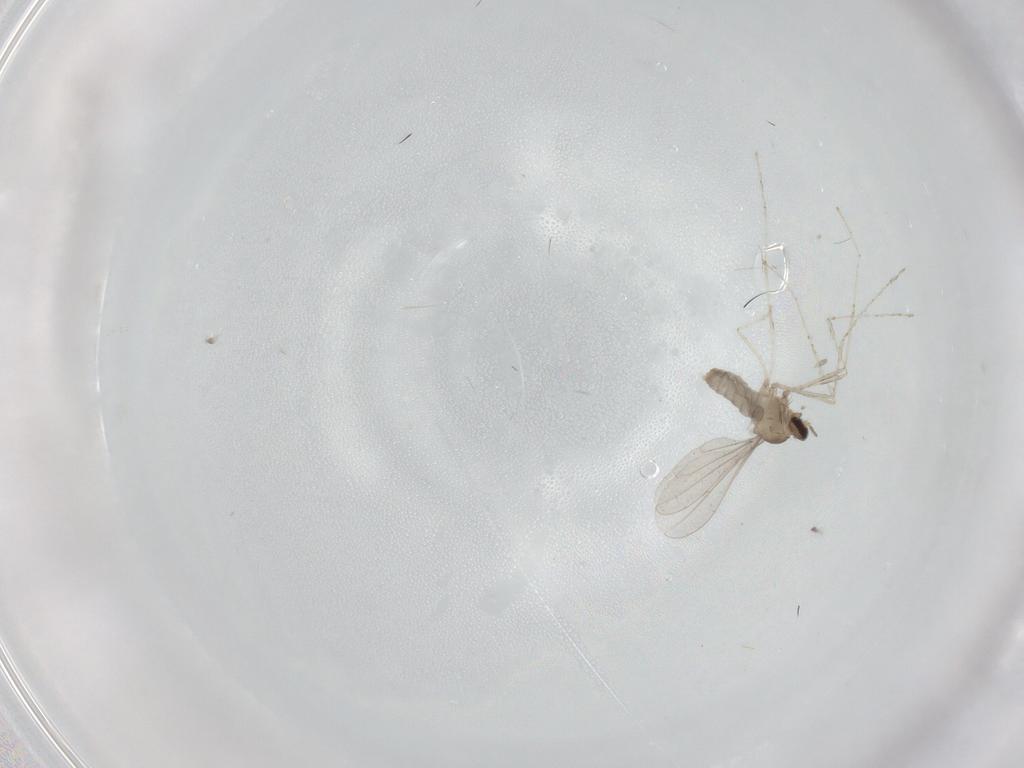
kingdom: Animalia
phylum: Arthropoda
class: Insecta
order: Diptera
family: Cecidomyiidae
